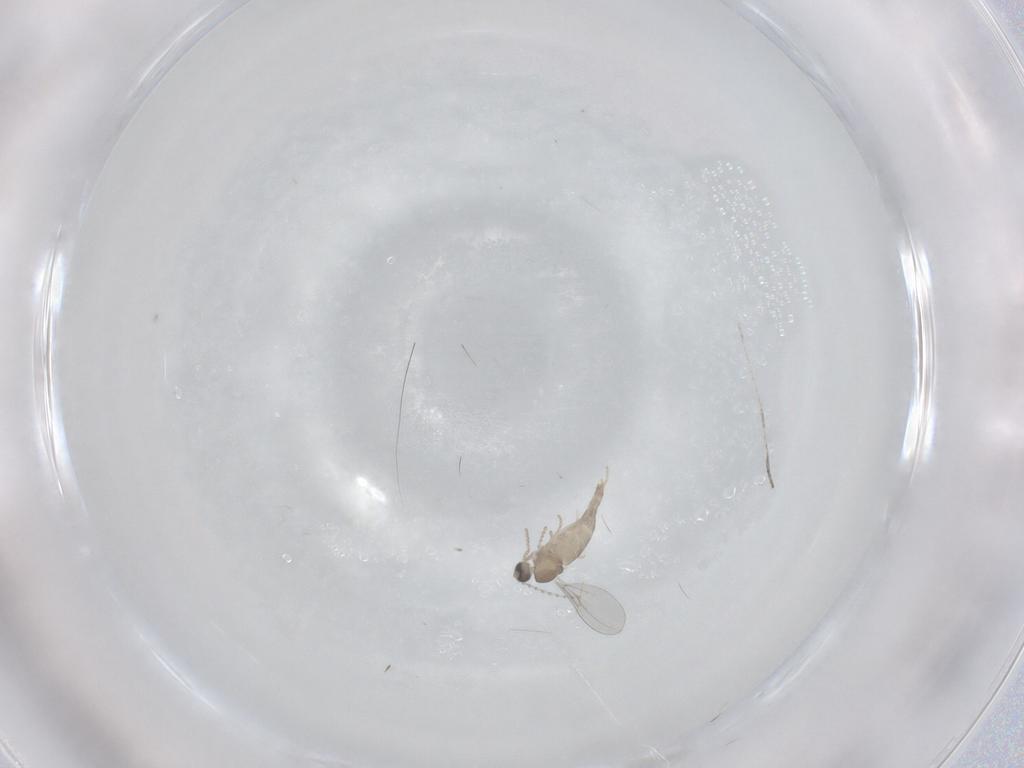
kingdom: Animalia
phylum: Arthropoda
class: Insecta
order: Diptera
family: Cecidomyiidae
